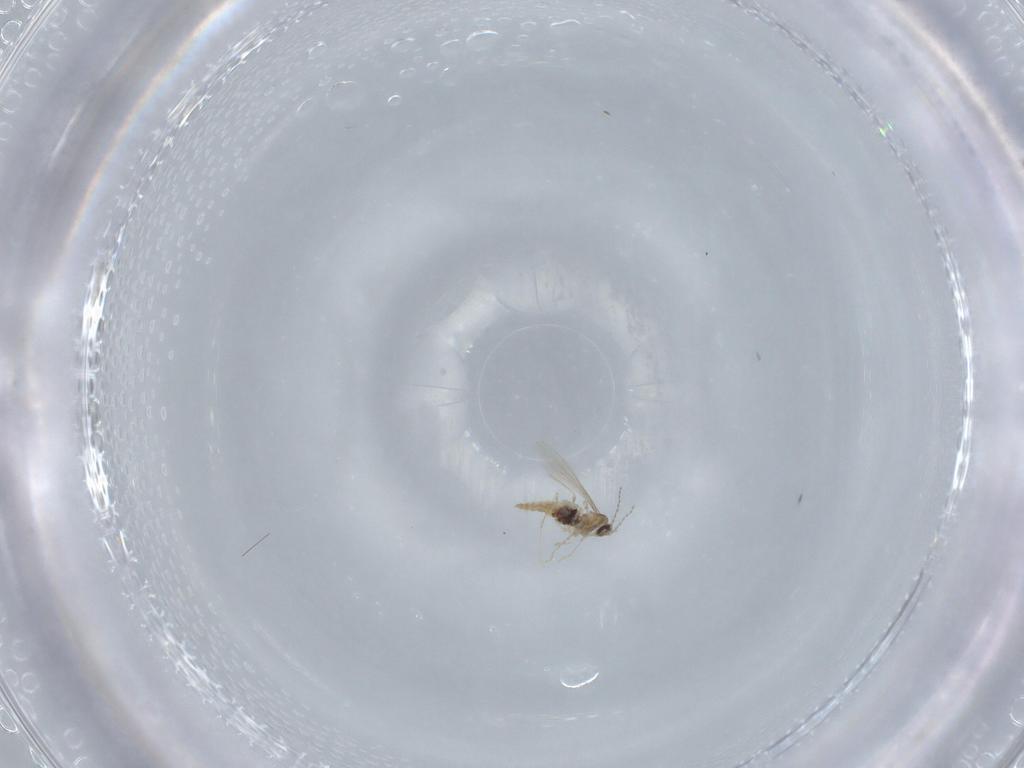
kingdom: Animalia
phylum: Arthropoda
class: Insecta
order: Diptera
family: Cecidomyiidae
